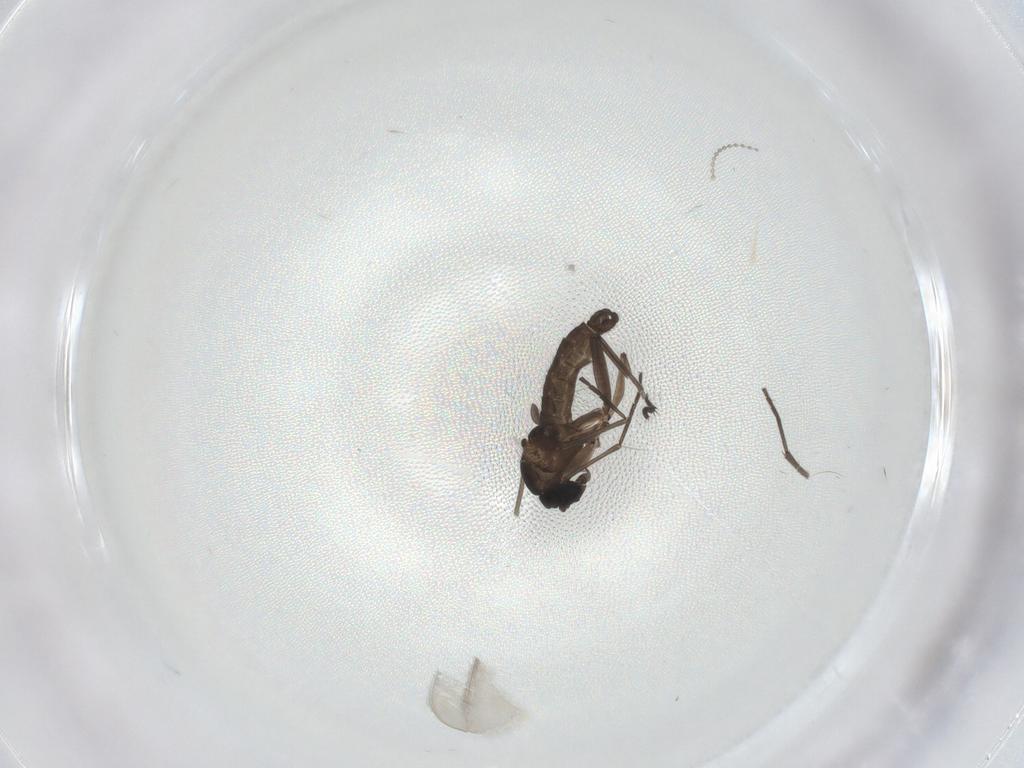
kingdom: Animalia
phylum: Arthropoda
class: Insecta
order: Diptera
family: Sciaridae
